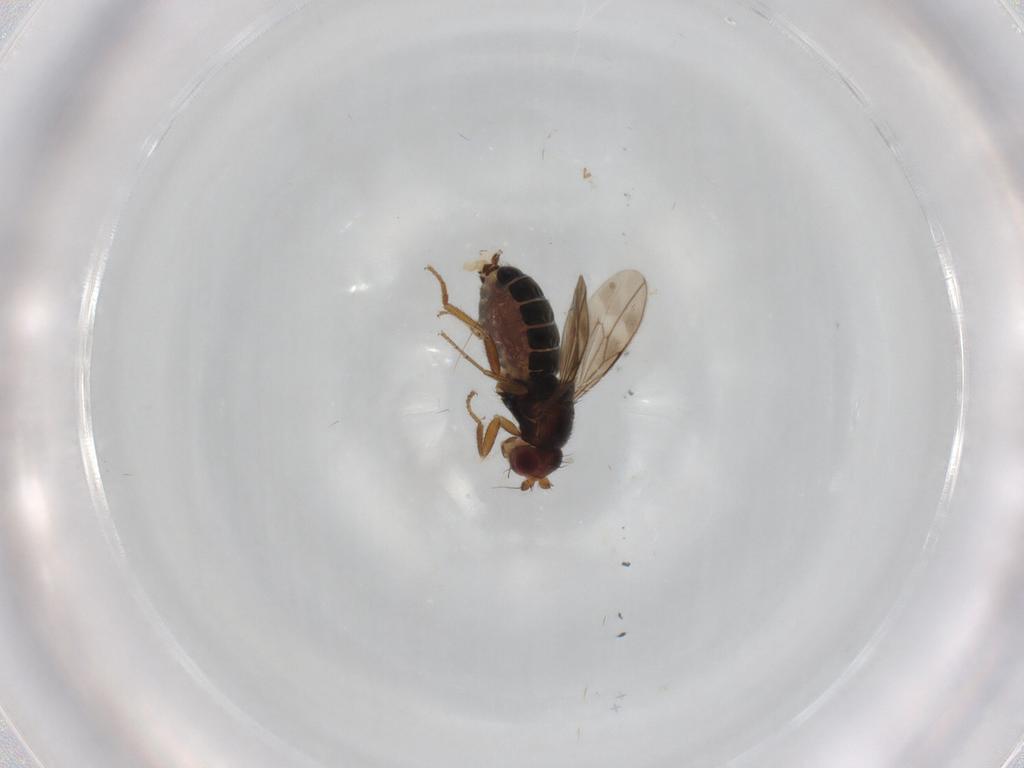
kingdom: Animalia
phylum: Arthropoda
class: Insecta
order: Diptera
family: Sphaeroceridae
